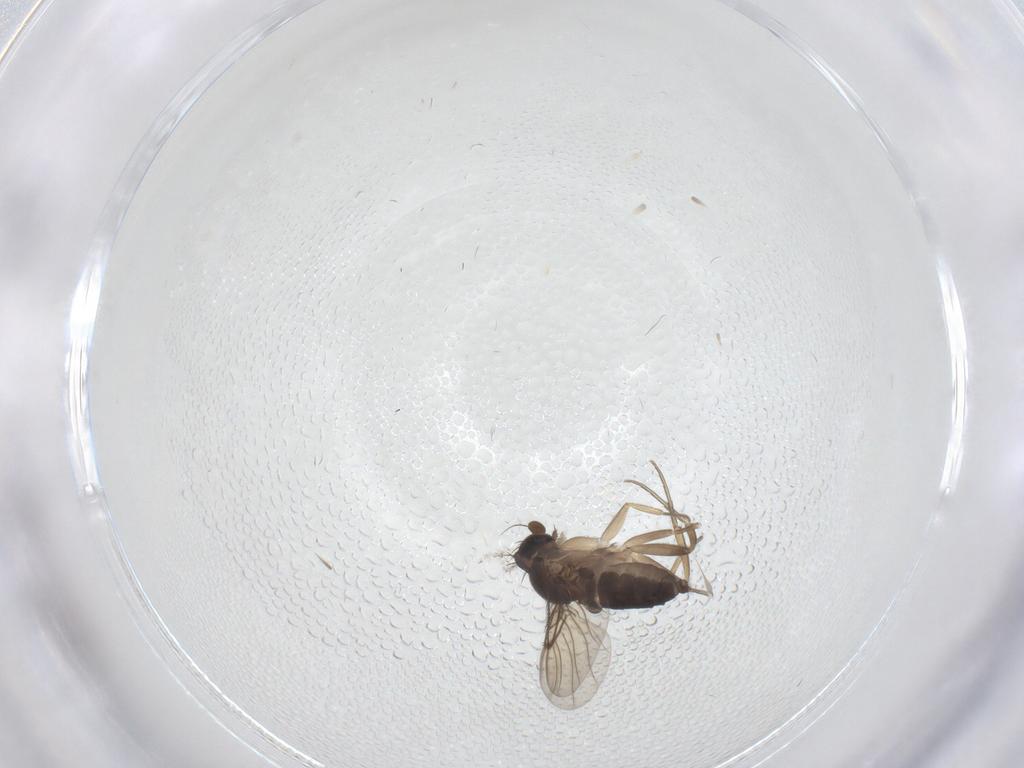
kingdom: Animalia
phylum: Arthropoda
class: Insecta
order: Diptera
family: Phoridae
